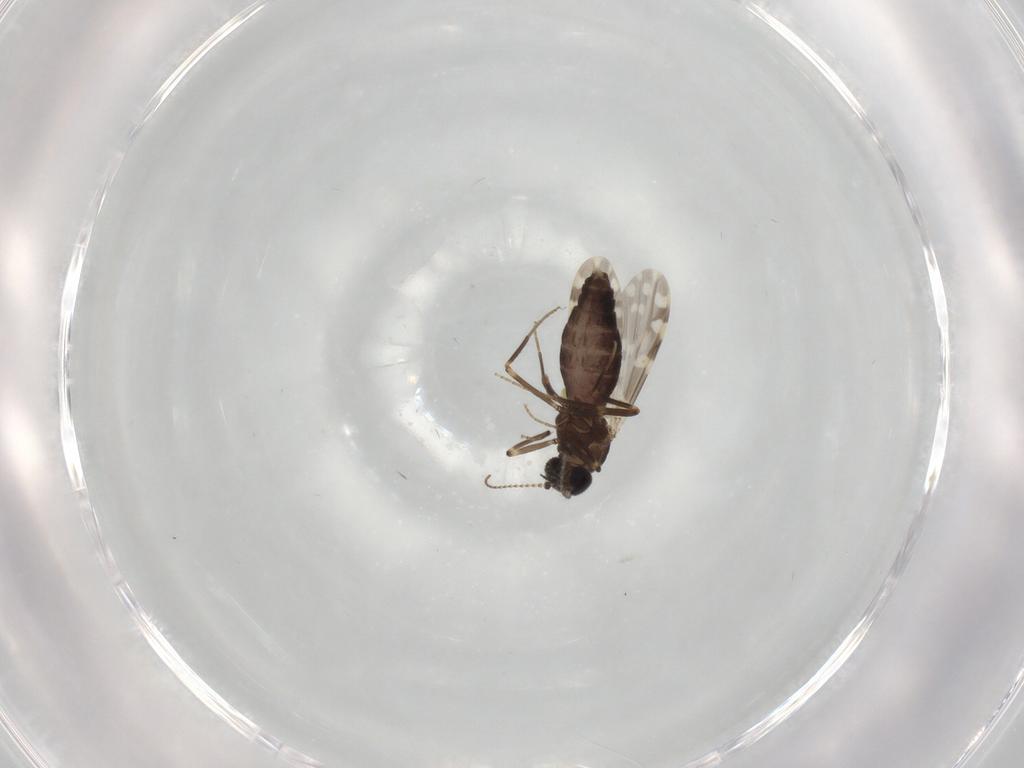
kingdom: Animalia
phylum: Arthropoda
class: Insecta
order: Diptera
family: Ceratopogonidae
